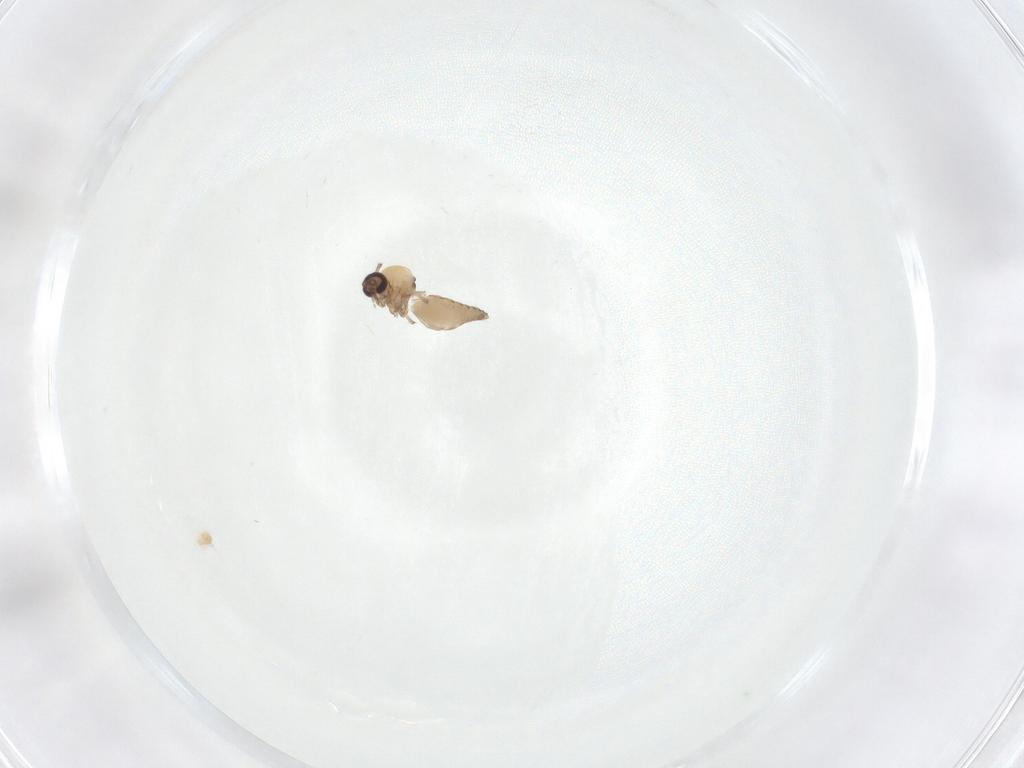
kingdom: Animalia
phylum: Arthropoda
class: Insecta
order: Diptera
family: Ceratopogonidae
